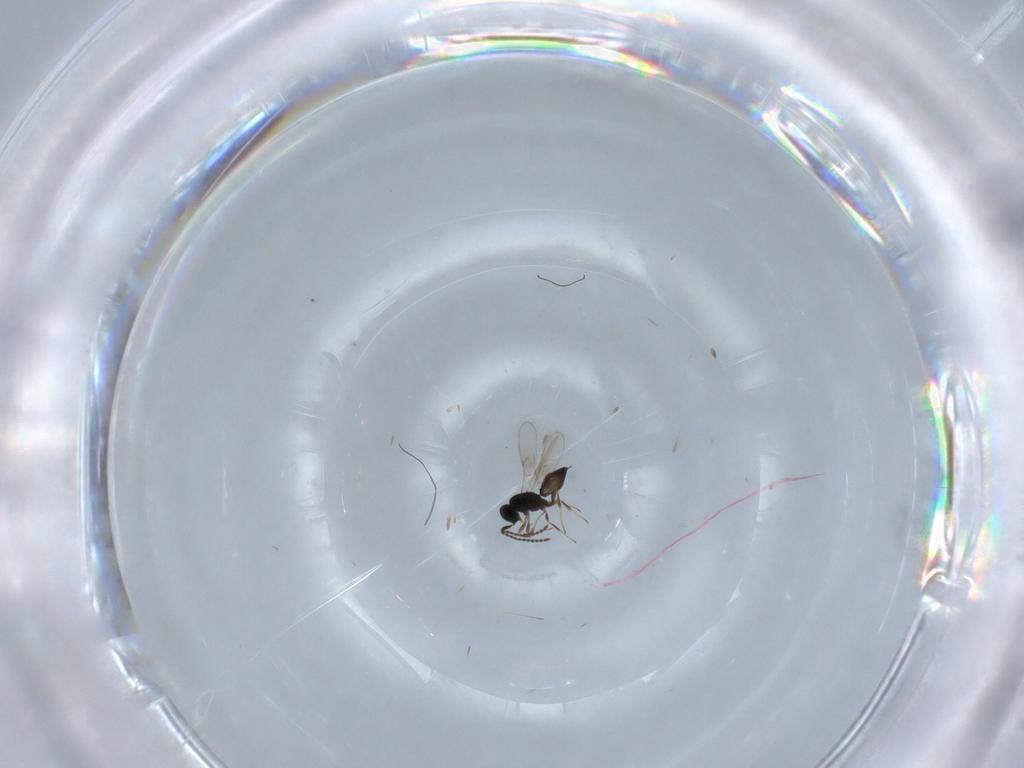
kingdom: Animalia
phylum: Arthropoda
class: Insecta
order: Hymenoptera
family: Scelionidae
